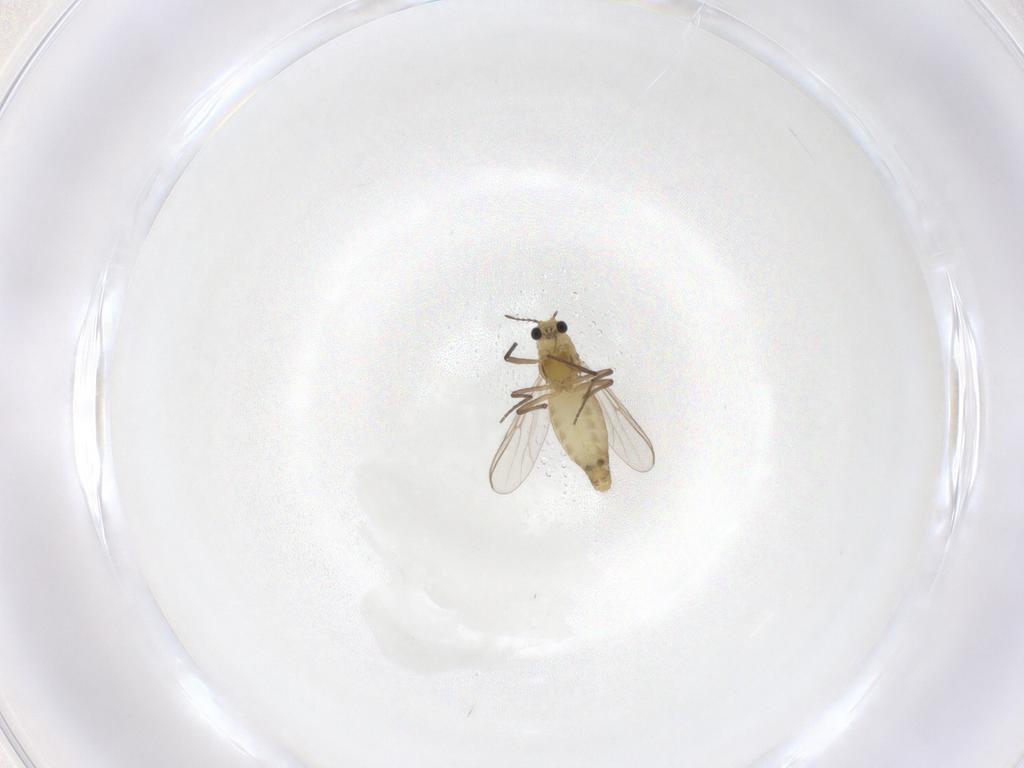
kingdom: Animalia
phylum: Arthropoda
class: Insecta
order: Diptera
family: Chironomidae
